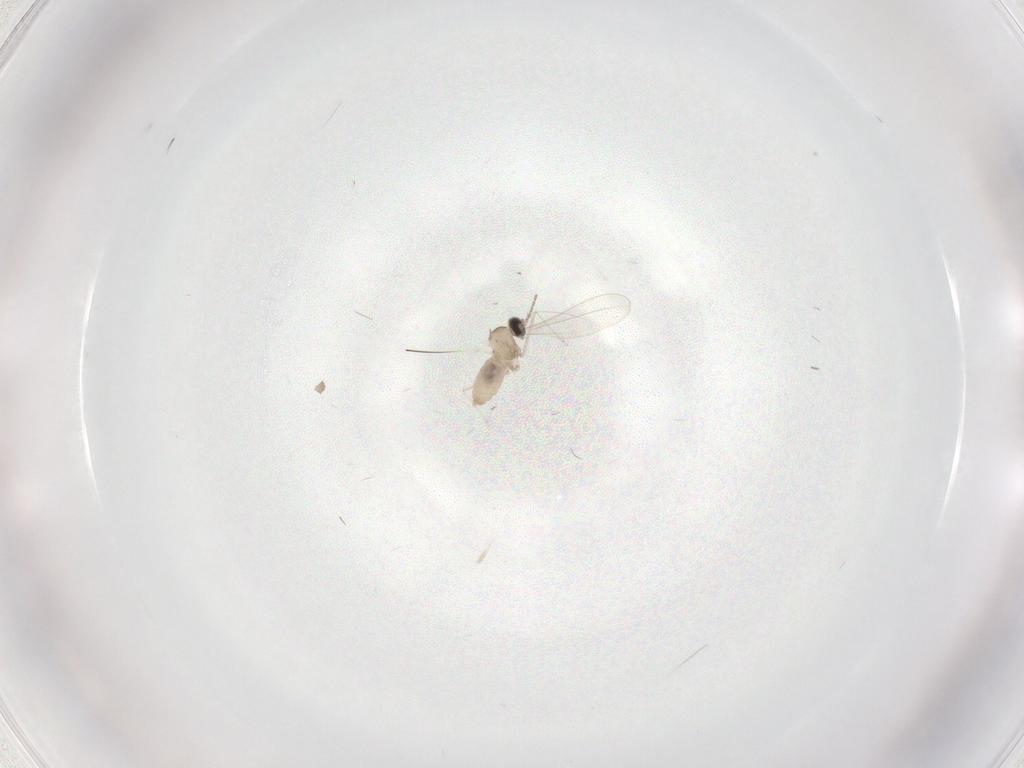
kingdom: Animalia
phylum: Arthropoda
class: Insecta
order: Diptera
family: Cecidomyiidae
